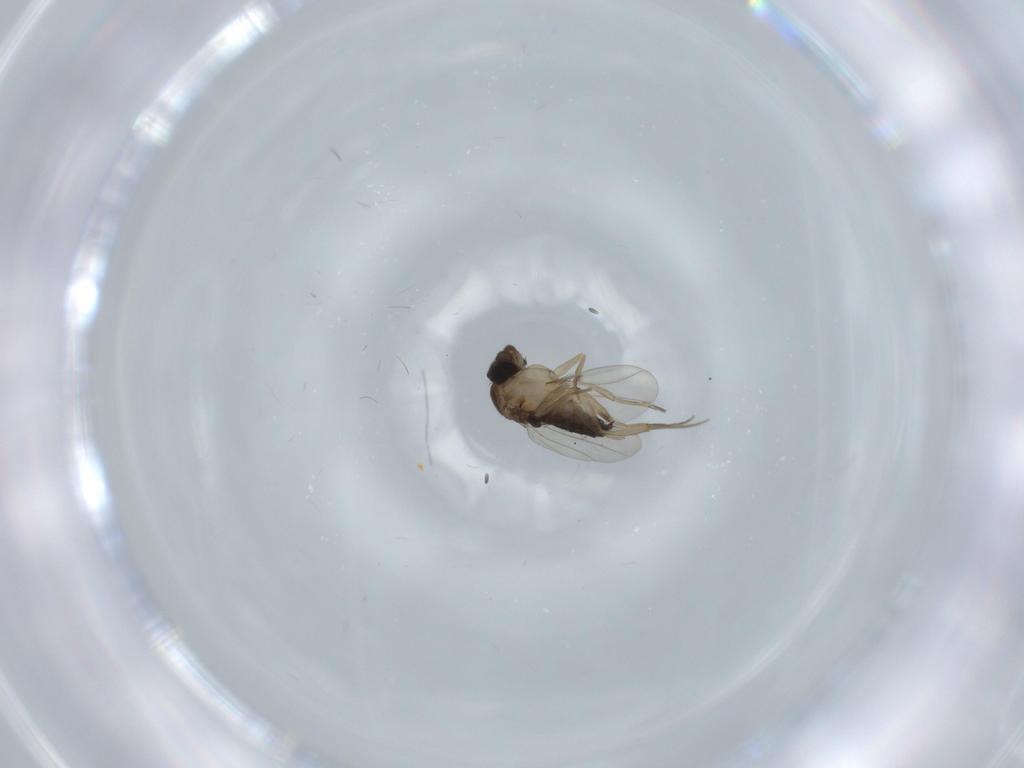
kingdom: Animalia
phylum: Arthropoda
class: Insecta
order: Diptera
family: Phoridae
